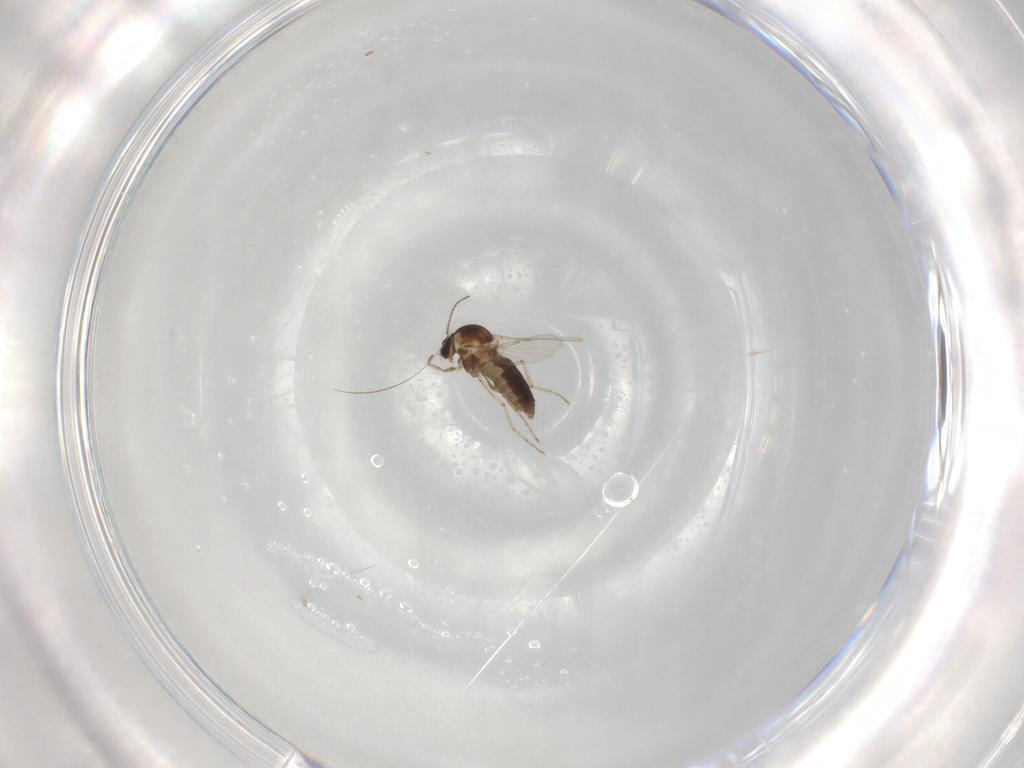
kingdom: Animalia
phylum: Arthropoda
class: Insecta
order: Diptera
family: Ceratopogonidae
